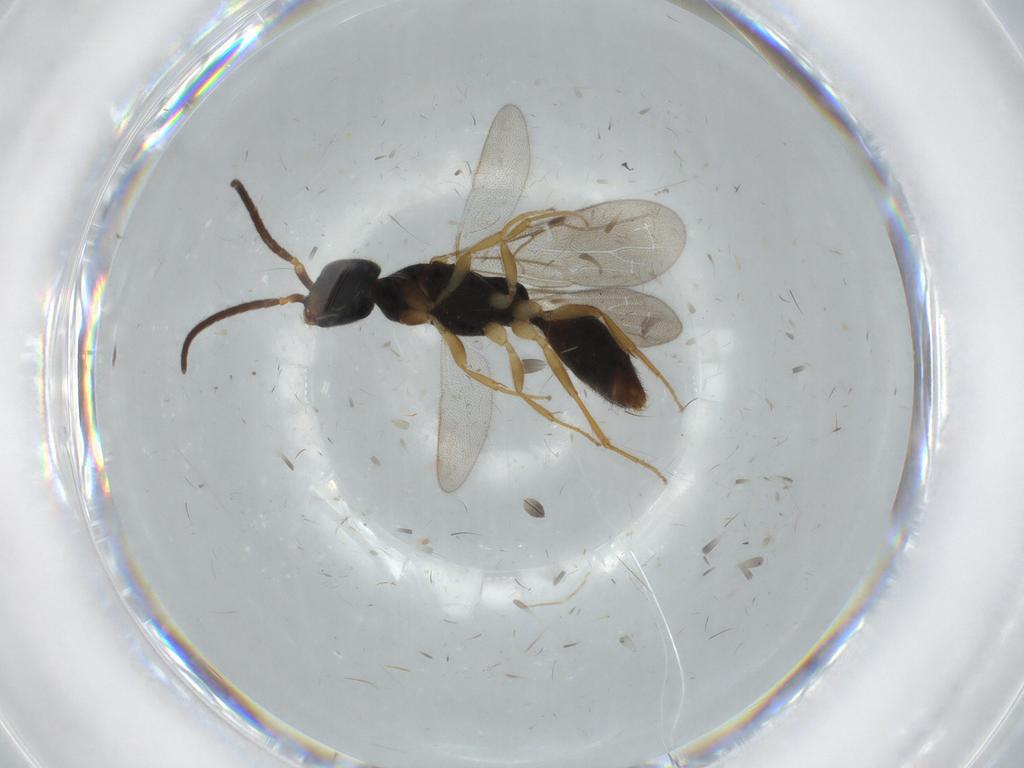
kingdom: Animalia
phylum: Arthropoda
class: Insecta
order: Hymenoptera
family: Bethylidae
